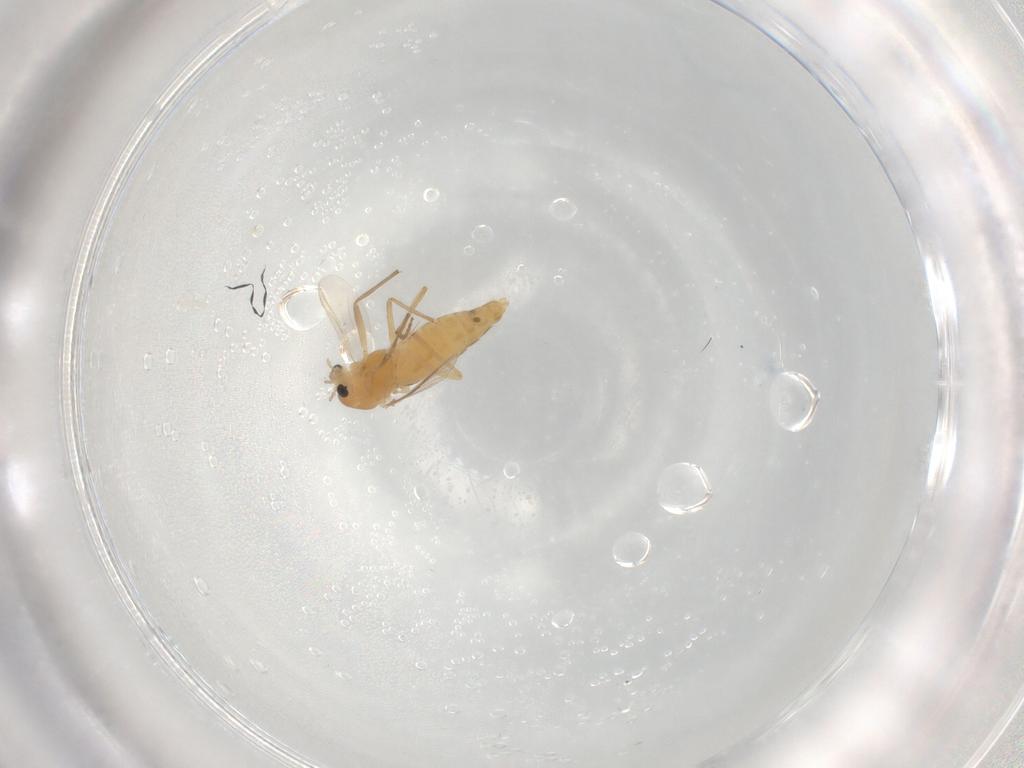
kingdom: Animalia
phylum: Arthropoda
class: Insecta
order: Diptera
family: Chironomidae
